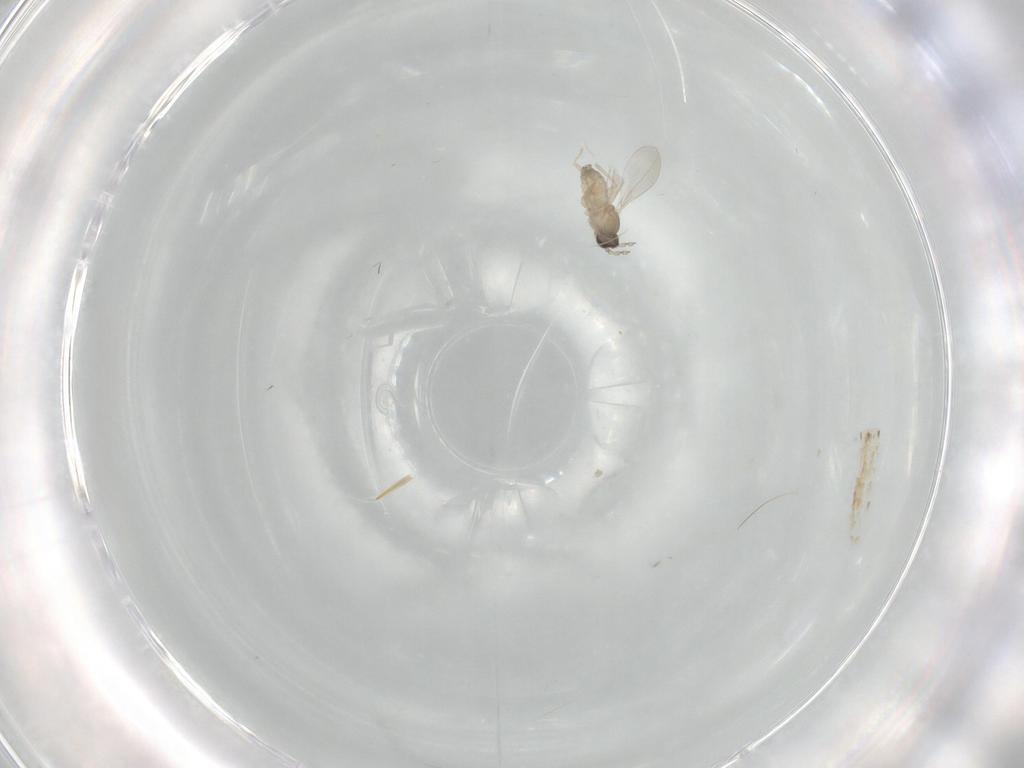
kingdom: Animalia
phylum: Arthropoda
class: Insecta
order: Diptera
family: Cecidomyiidae
